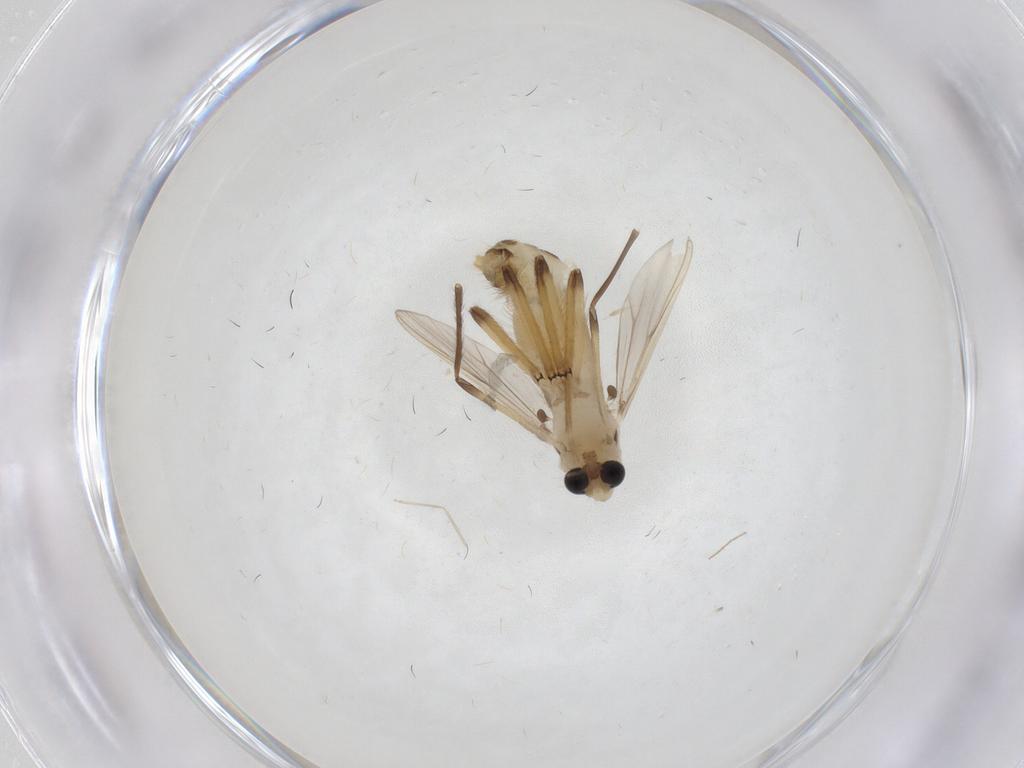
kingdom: Animalia
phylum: Arthropoda
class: Insecta
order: Diptera
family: Chironomidae
